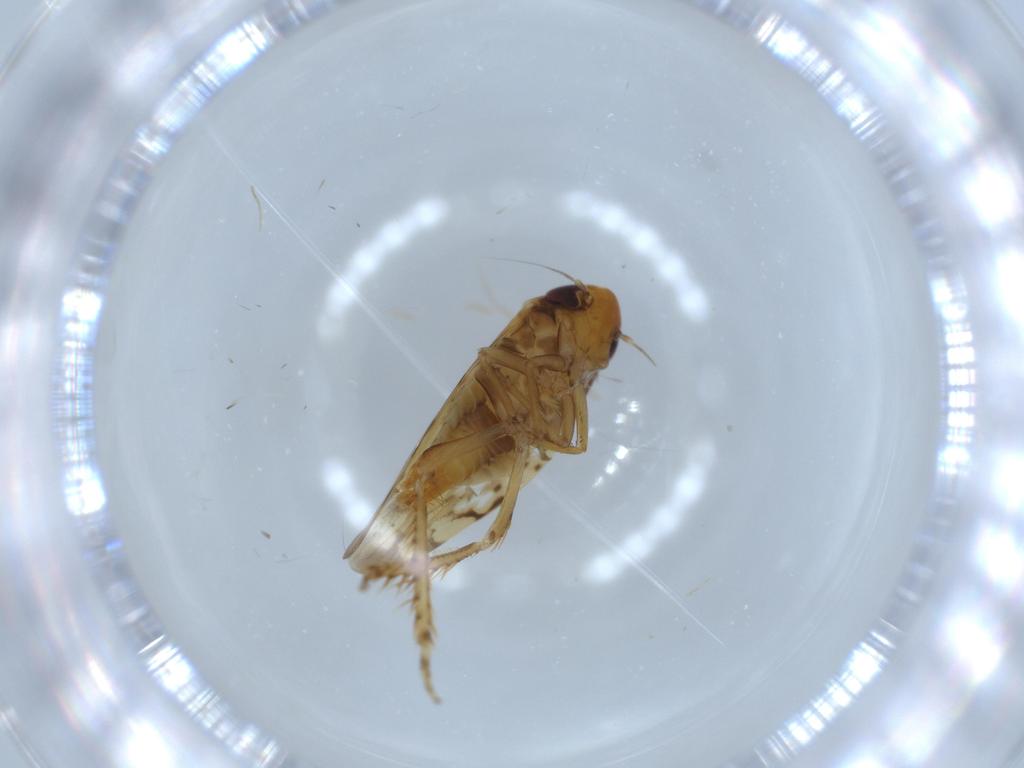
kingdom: Animalia
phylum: Arthropoda
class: Insecta
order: Hemiptera
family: Cicadellidae
